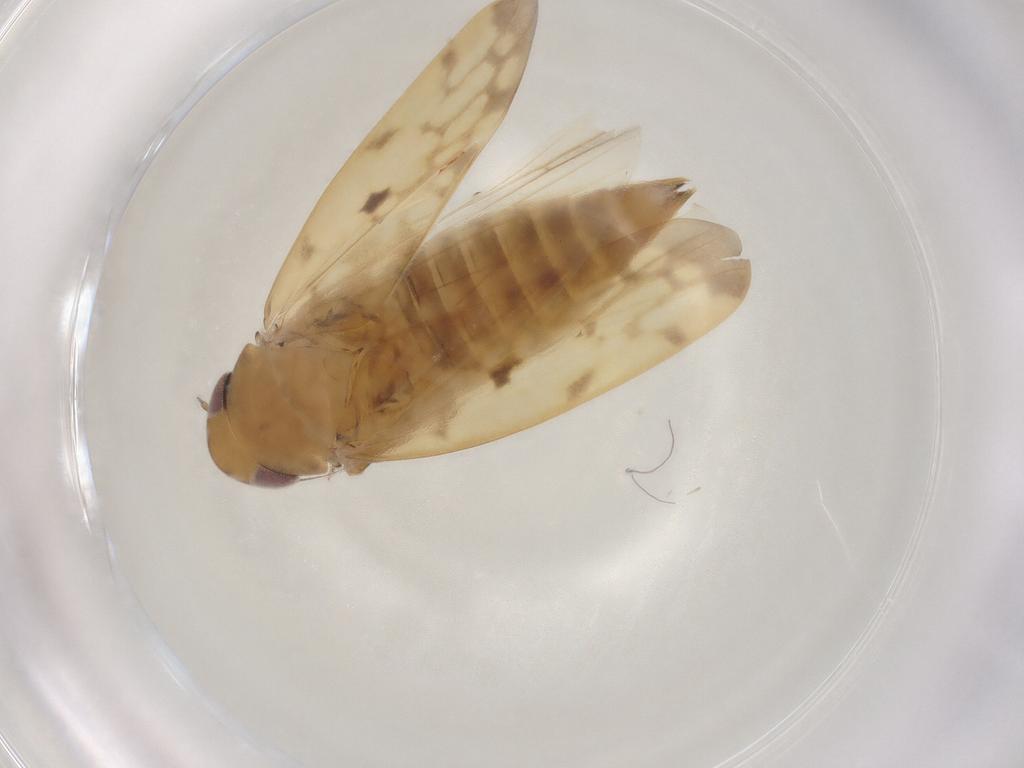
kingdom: Animalia
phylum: Arthropoda
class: Insecta
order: Hemiptera
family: Cicadellidae
